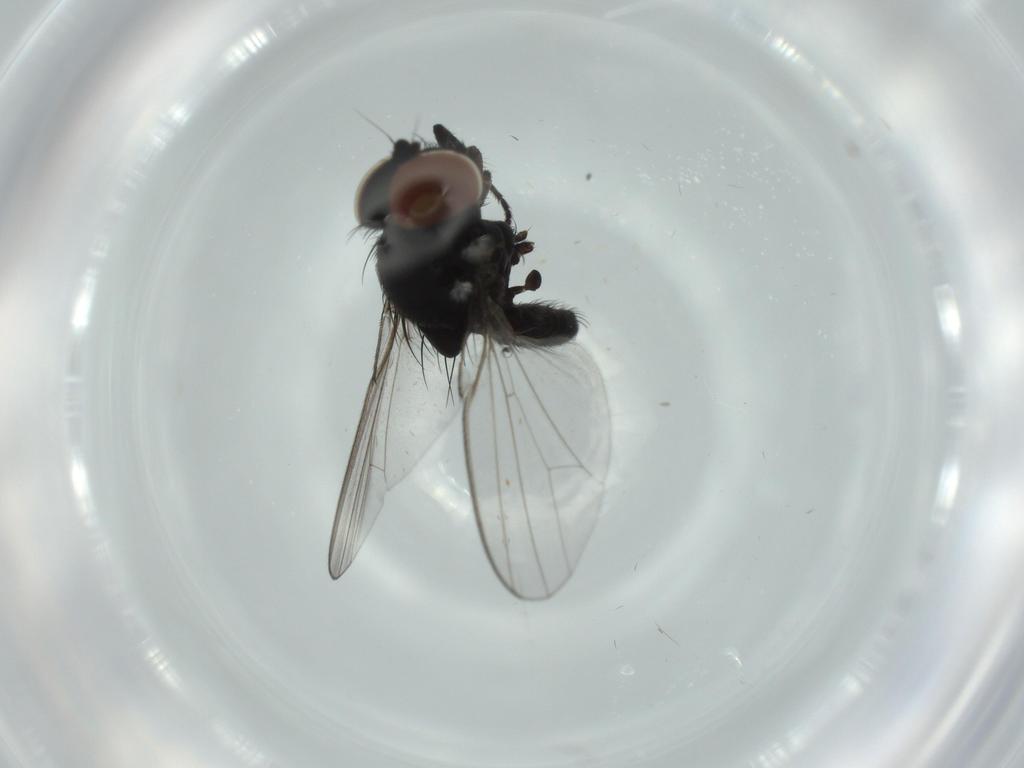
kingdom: Animalia
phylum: Arthropoda
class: Insecta
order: Diptera
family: Milichiidae
